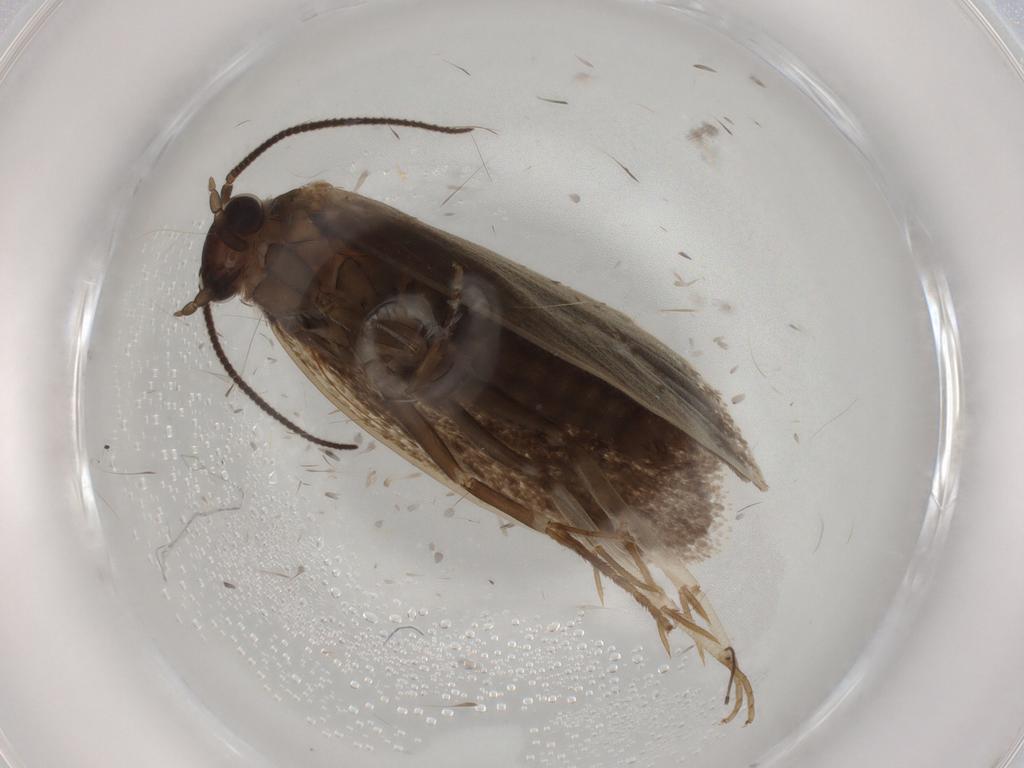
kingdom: Animalia
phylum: Arthropoda
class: Insecta
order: Lepidoptera
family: Tineidae
